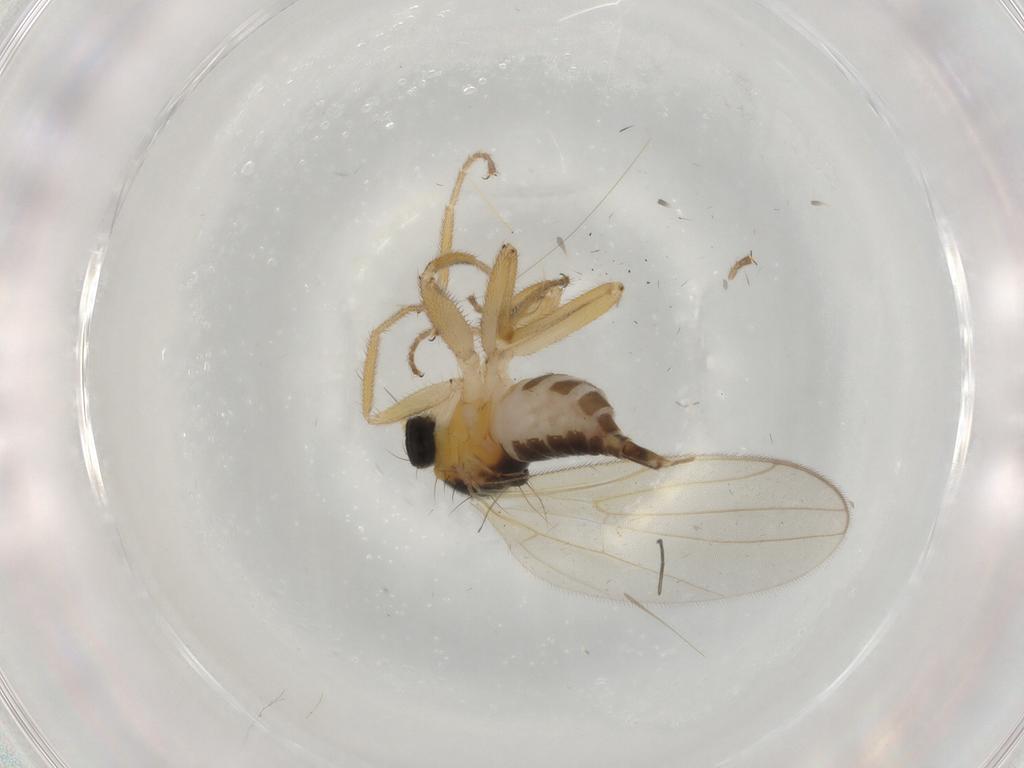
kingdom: Animalia
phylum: Arthropoda
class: Insecta
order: Diptera
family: Hybotidae
